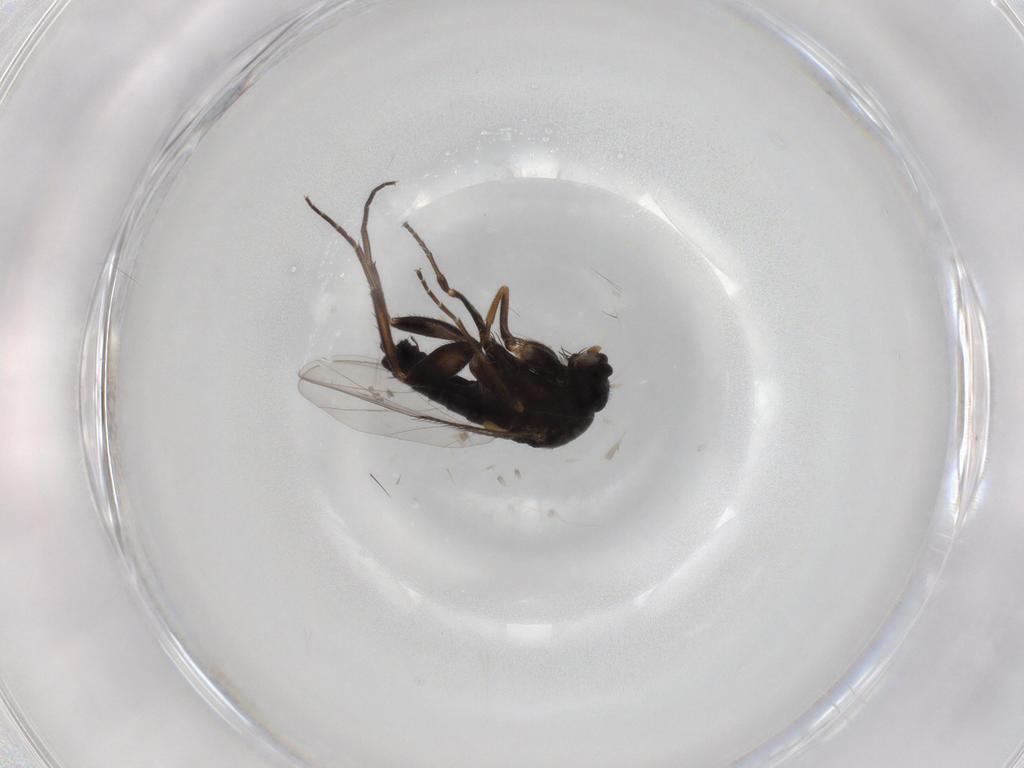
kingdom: Animalia
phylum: Arthropoda
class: Insecta
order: Diptera
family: Phoridae
